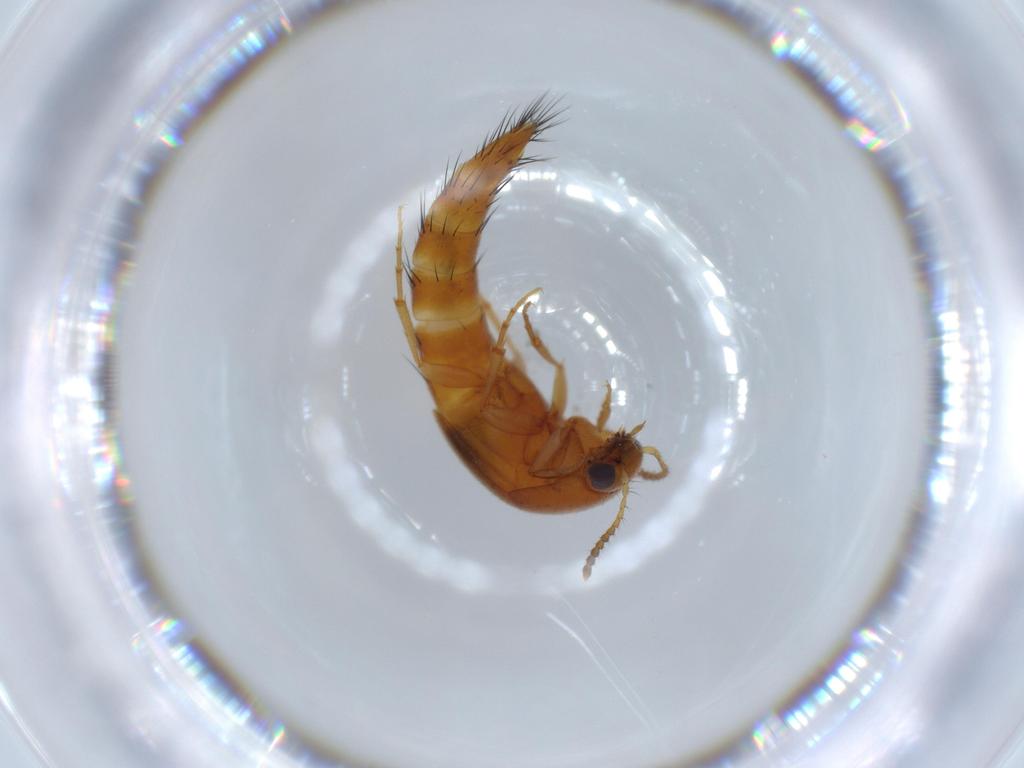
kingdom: Animalia
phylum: Arthropoda
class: Insecta
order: Coleoptera
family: Staphylinidae
